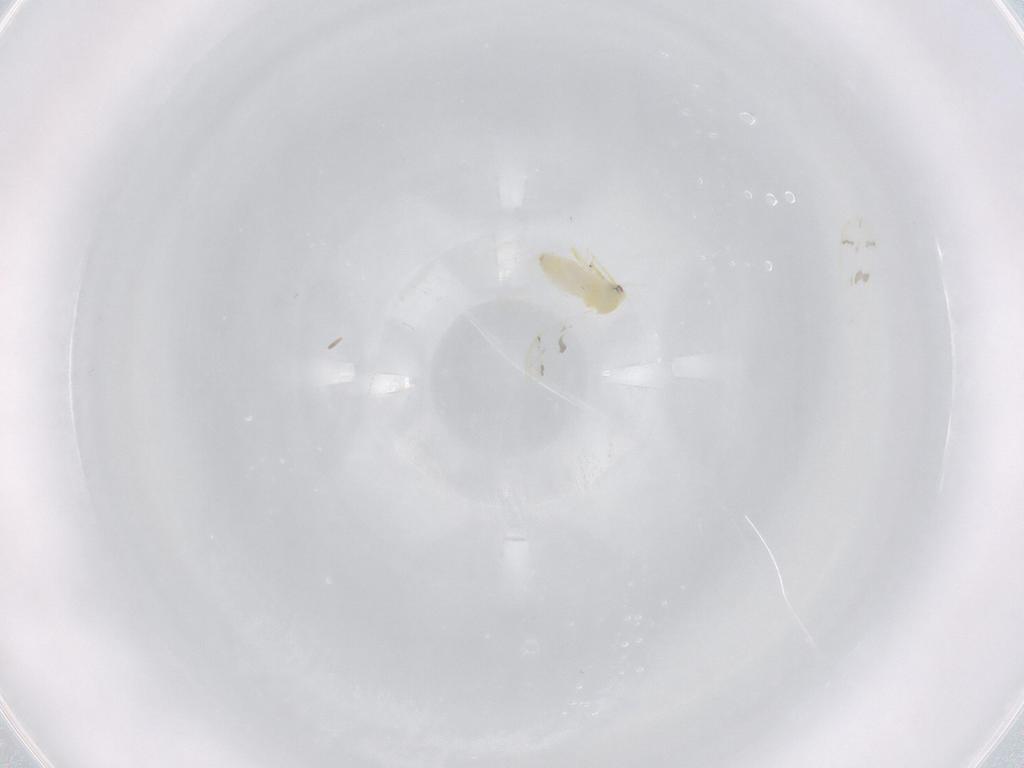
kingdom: Animalia
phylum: Arthropoda
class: Insecta
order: Hemiptera
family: Aleyrodidae
